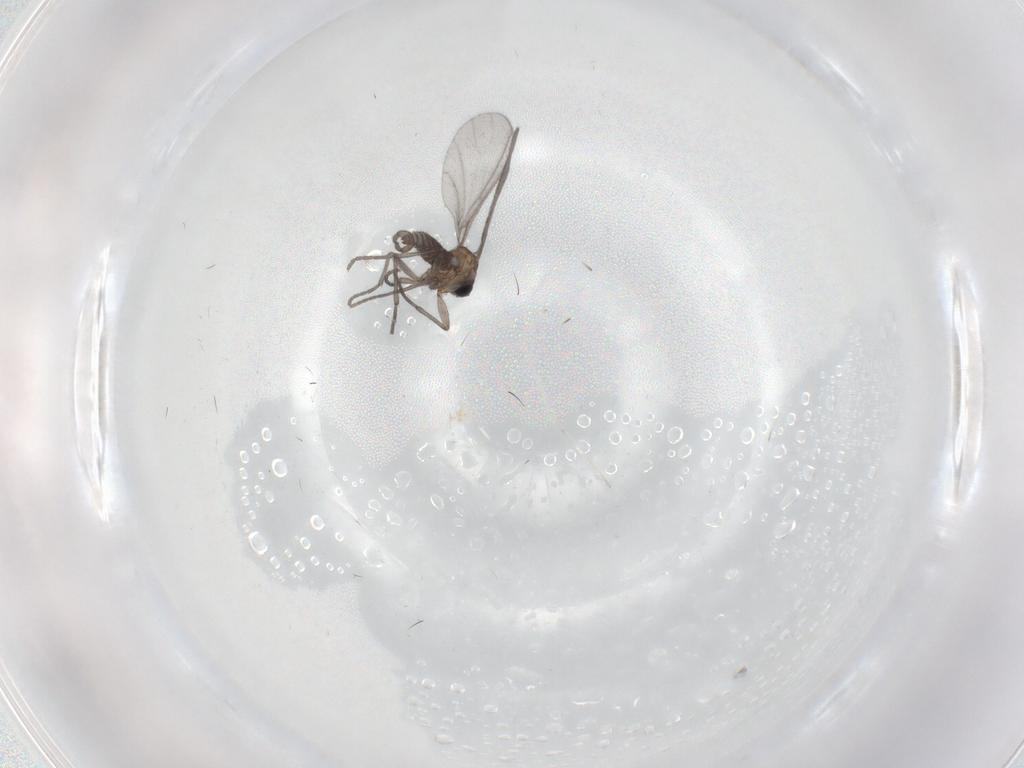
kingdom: Animalia
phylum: Arthropoda
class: Insecta
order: Diptera
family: Sciaridae
